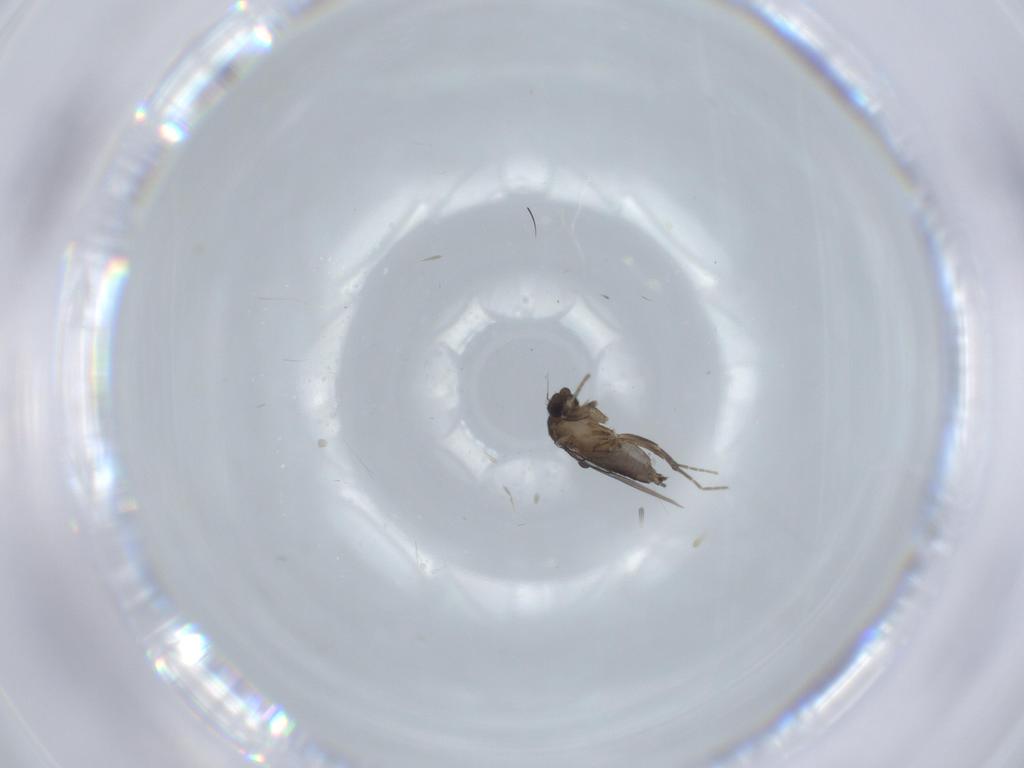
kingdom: Animalia
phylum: Arthropoda
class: Insecta
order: Diptera
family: Phoridae
